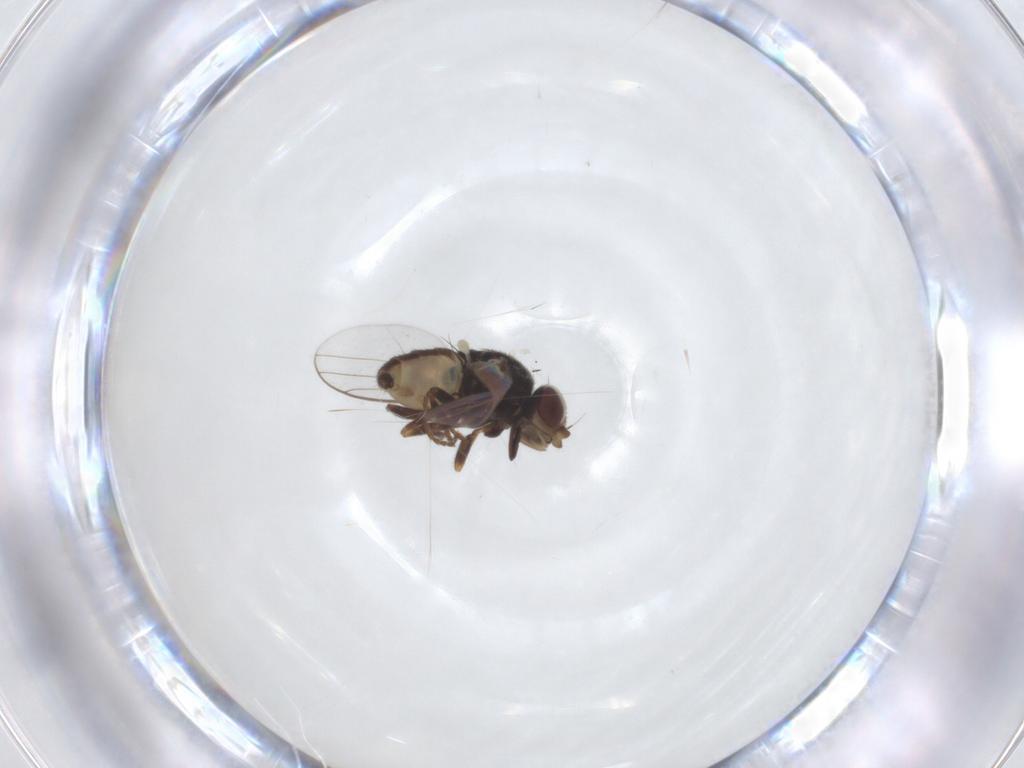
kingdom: Animalia
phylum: Arthropoda
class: Insecta
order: Diptera
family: Chloropidae
